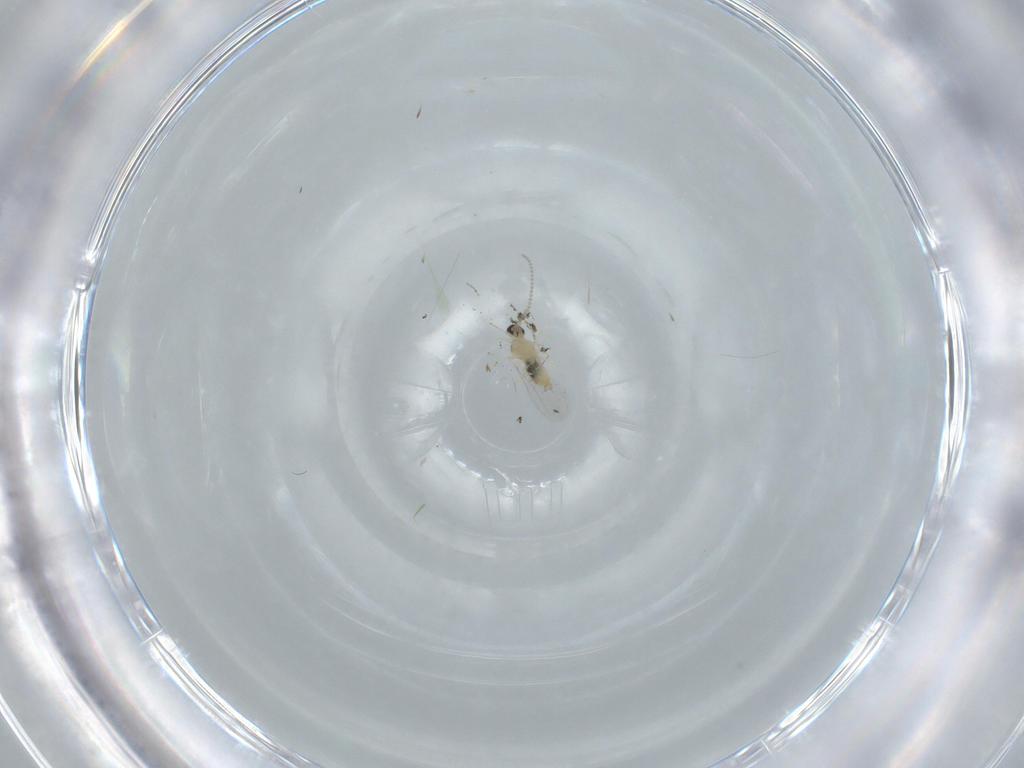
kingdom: Animalia
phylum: Arthropoda
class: Insecta
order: Diptera
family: Cecidomyiidae
